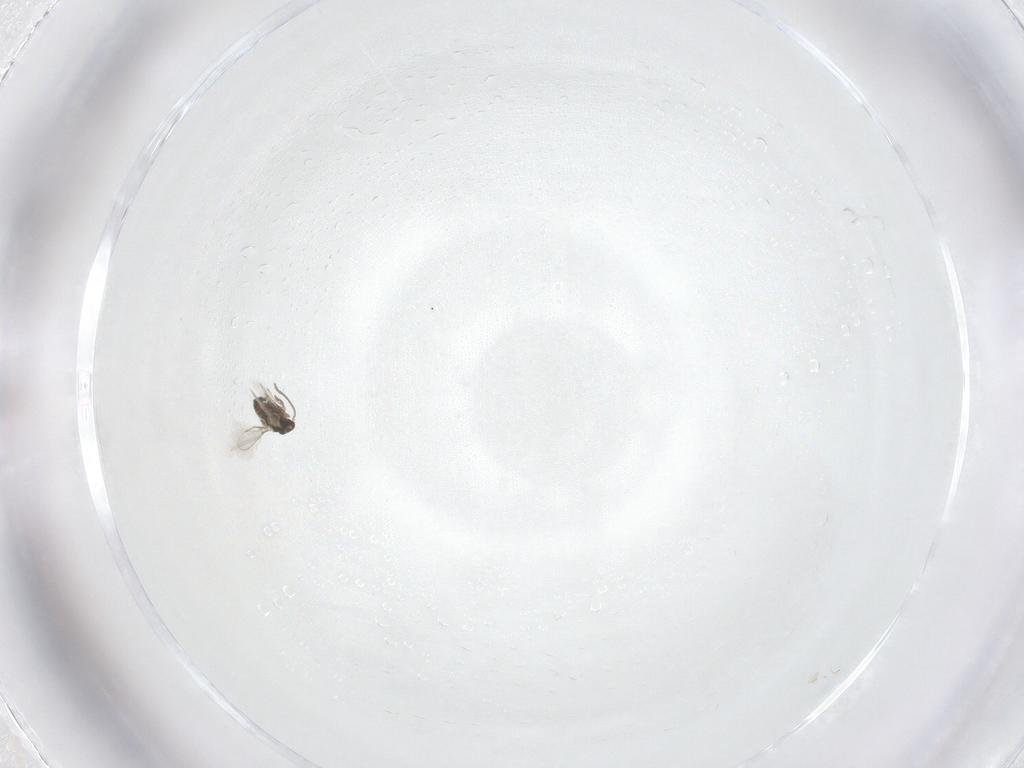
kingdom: Animalia
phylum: Arthropoda
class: Insecta
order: Hymenoptera
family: Mymaridae
